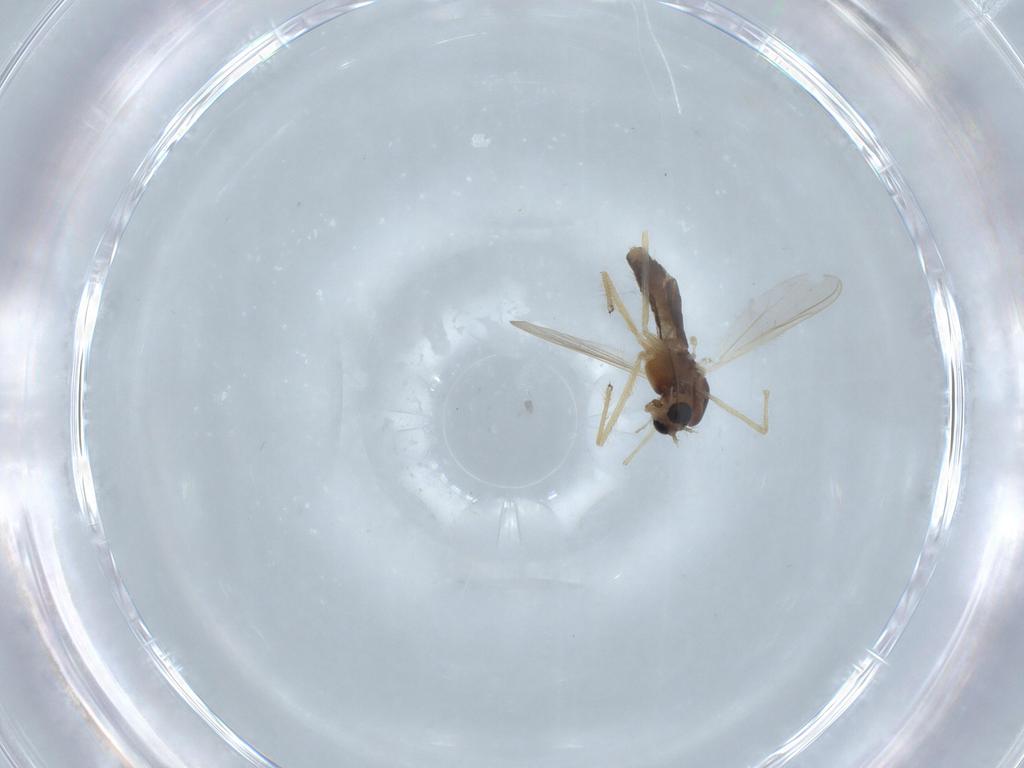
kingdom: Animalia
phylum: Arthropoda
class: Insecta
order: Diptera
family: Chironomidae
